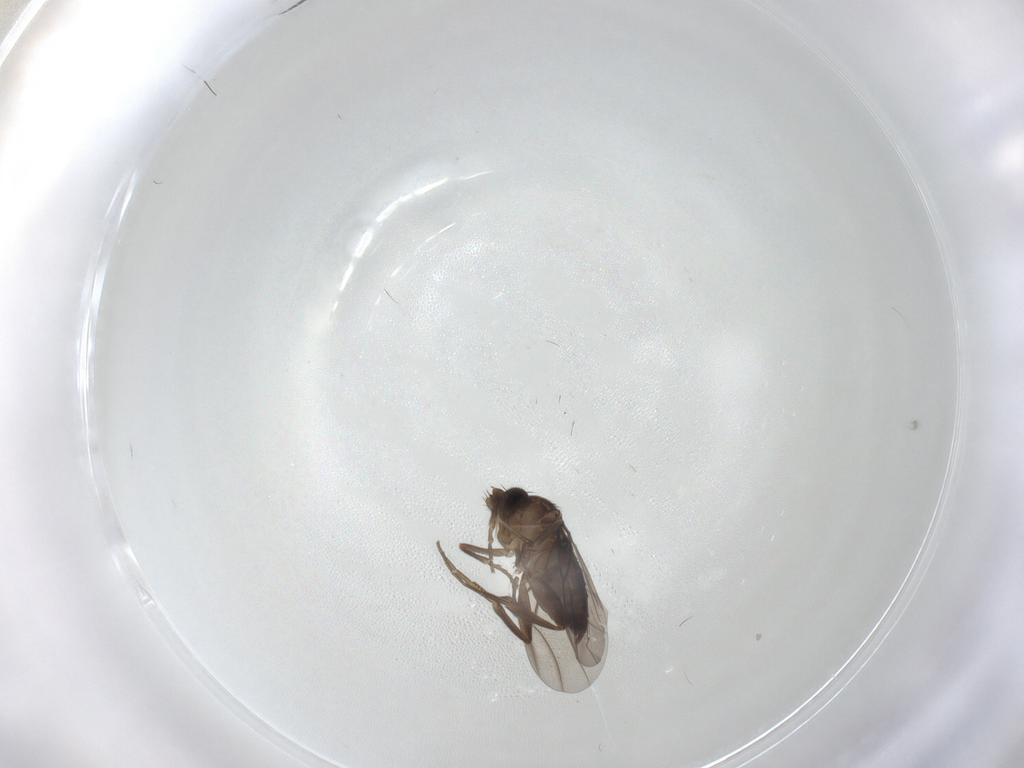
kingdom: Animalia
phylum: Arthropoda
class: Insecta
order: Diptera
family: Phoridae
